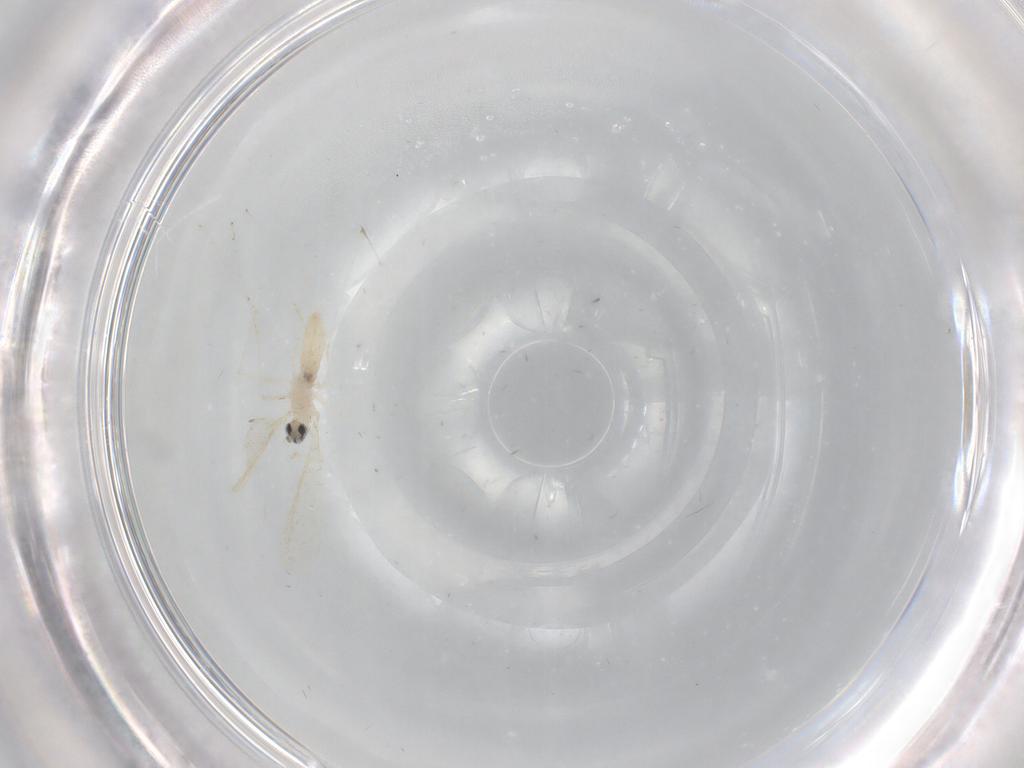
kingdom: Animalia
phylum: Arthropoda
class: Insecta
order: Diptera
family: Cecidomyiidae
